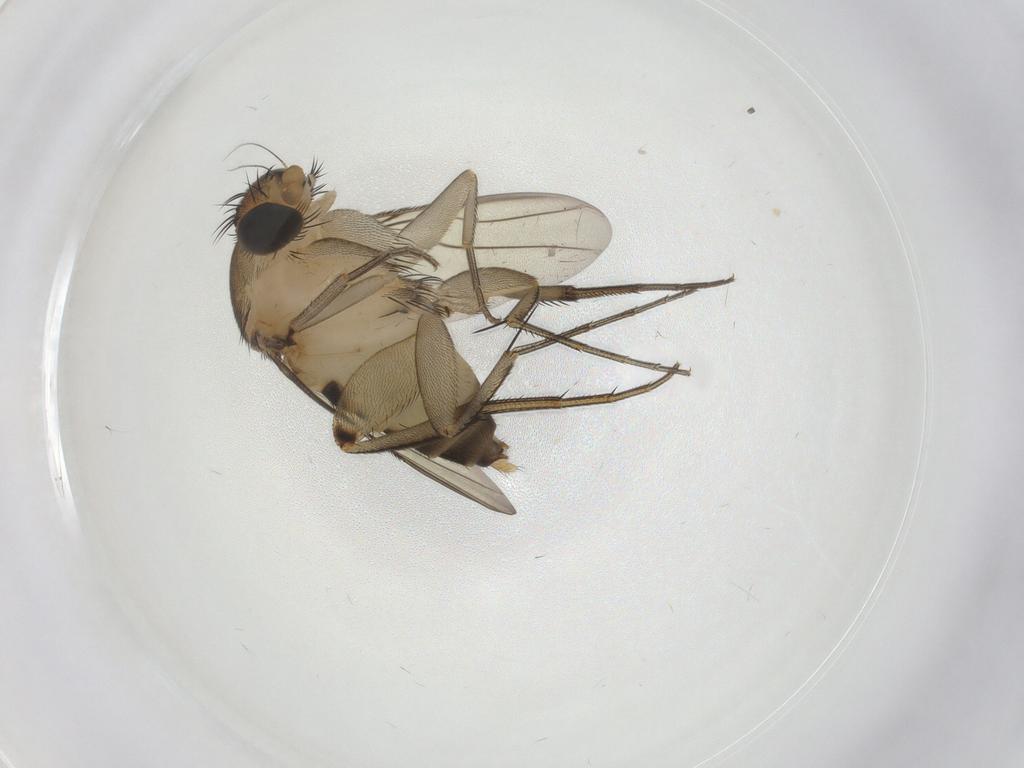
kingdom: Animalia
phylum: Arthropoda
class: Insecta
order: Diptera
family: Phoridae
